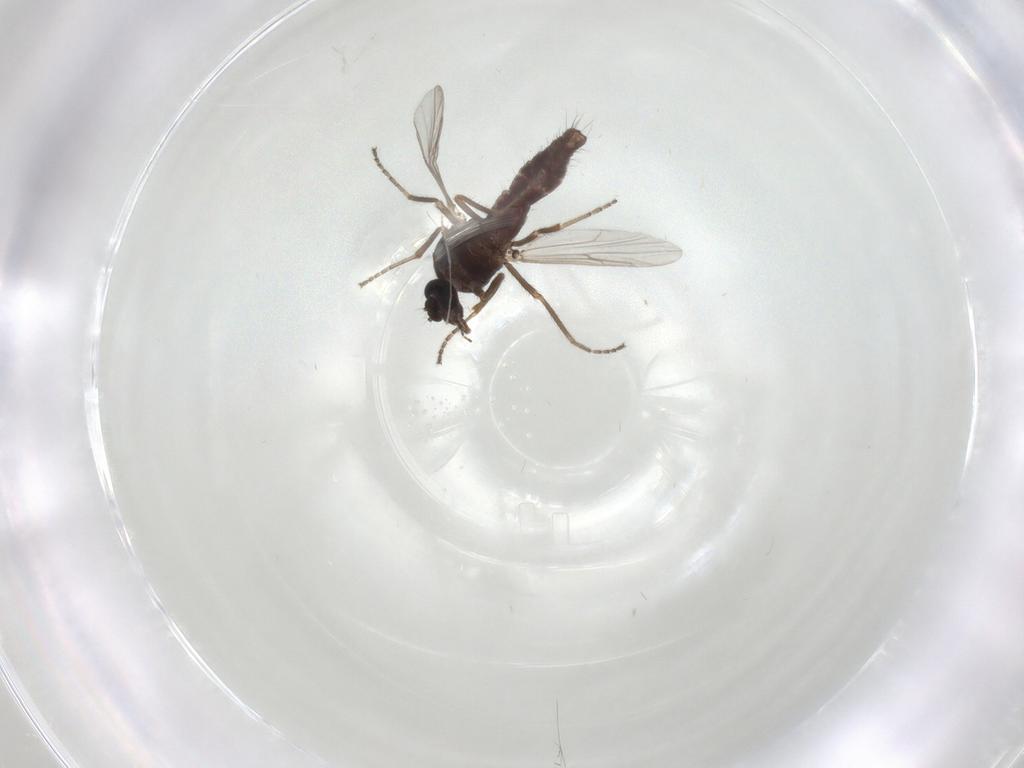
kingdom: Animalia
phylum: Arthropoda
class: Insecta
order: Diptera
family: Ceratopogonidae
